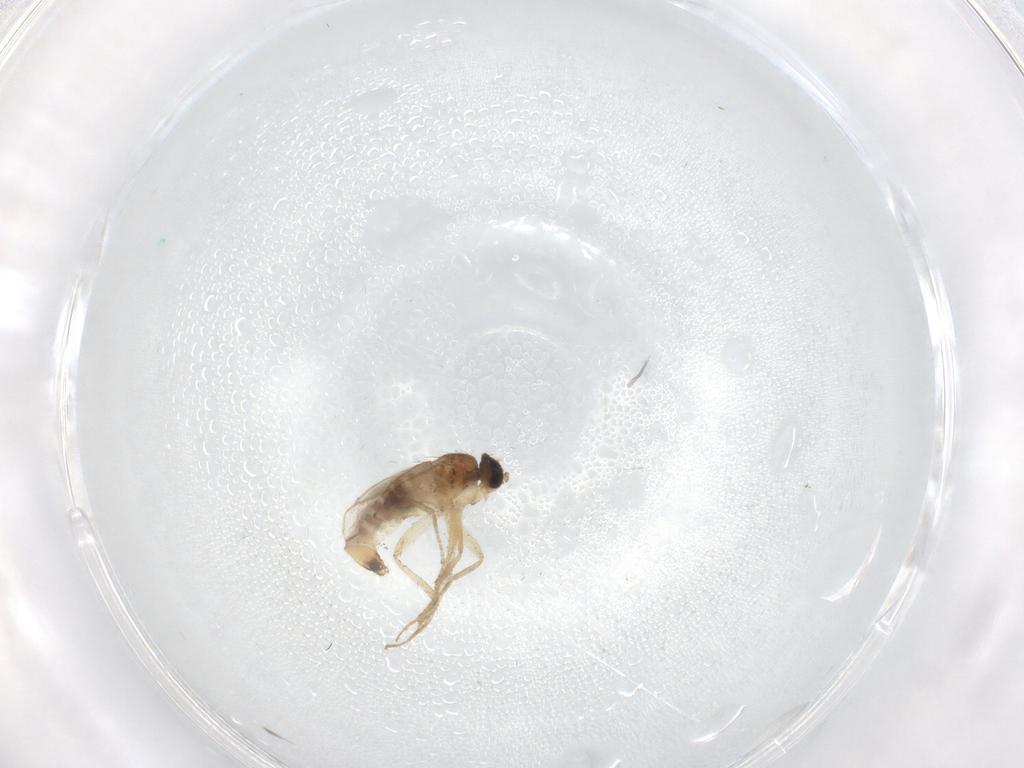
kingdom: Animalia
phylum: Arthropoda
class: Insecta
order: Diptera
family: Hybotidae
